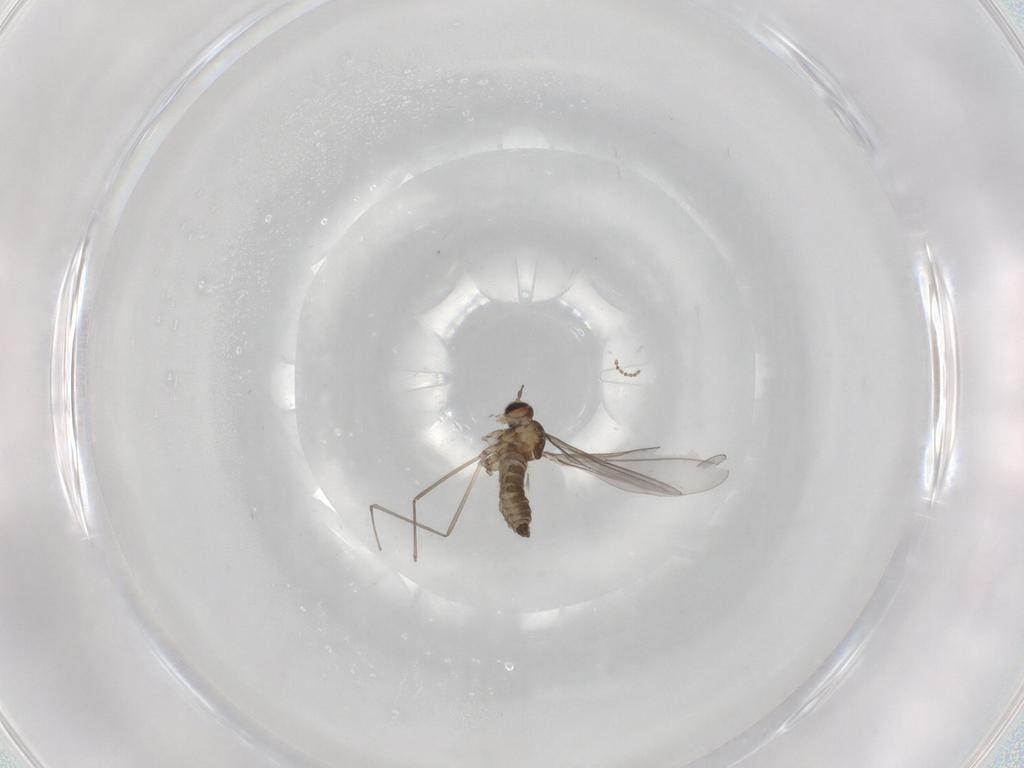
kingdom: Animalia
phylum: Arthropoda
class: Insecta
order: Diptera
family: Cecidomyiidae
